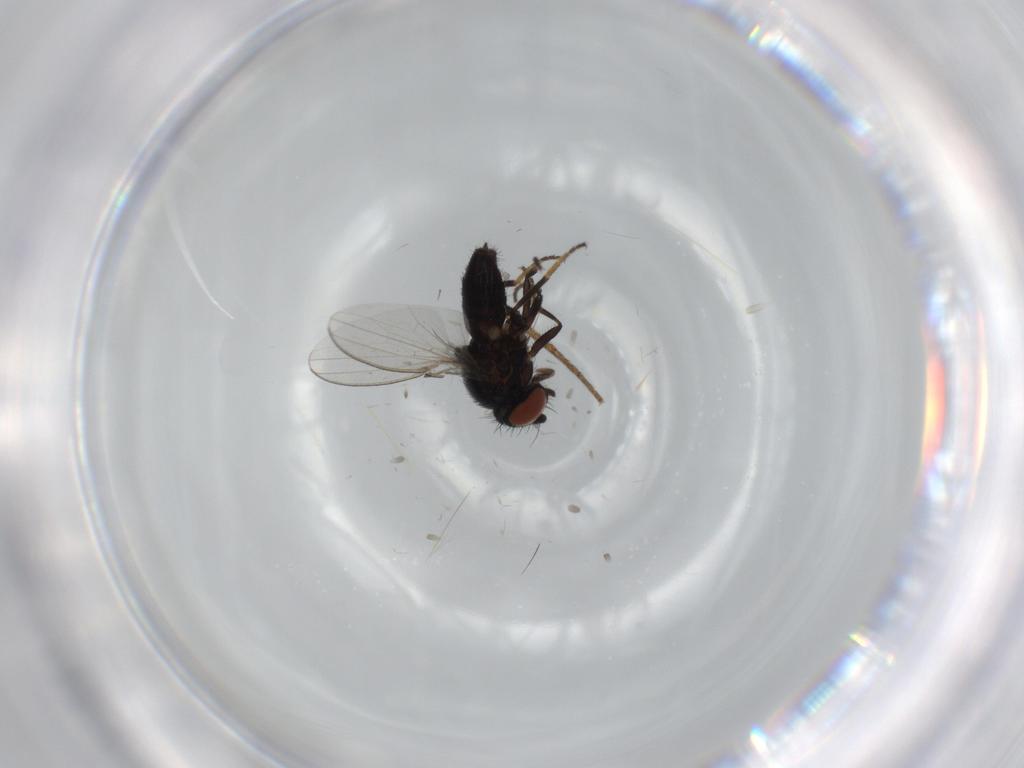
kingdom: Animalia
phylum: Arthropoda
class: Insecta
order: Diptera
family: Milichiidae
